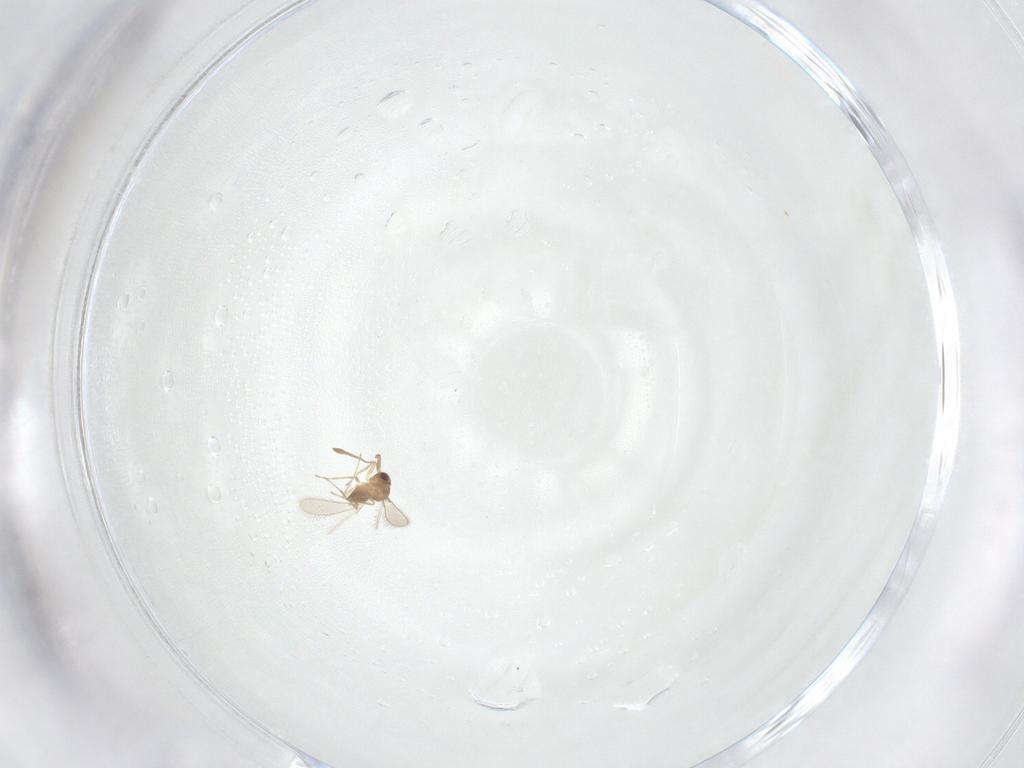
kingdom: Animalia
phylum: Arthropoda
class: Insecta
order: Hymenoptera
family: Mymaridae
